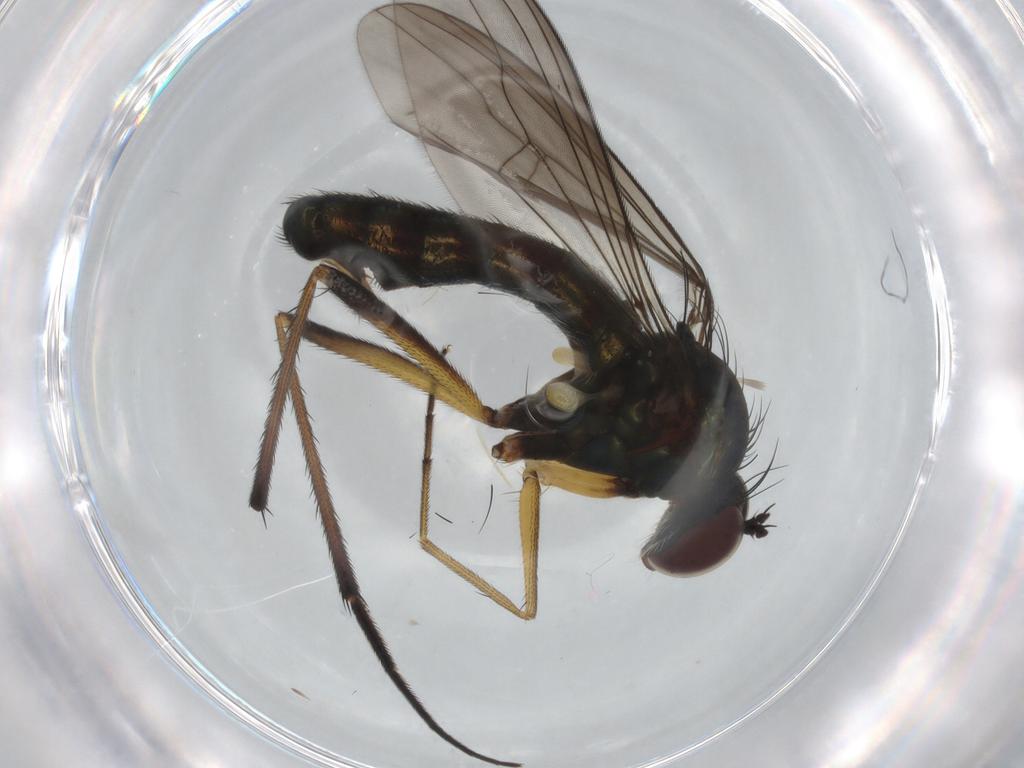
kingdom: Animalia
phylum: Arthropoda
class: Insecta
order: Diptera
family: Dolichopodidae
